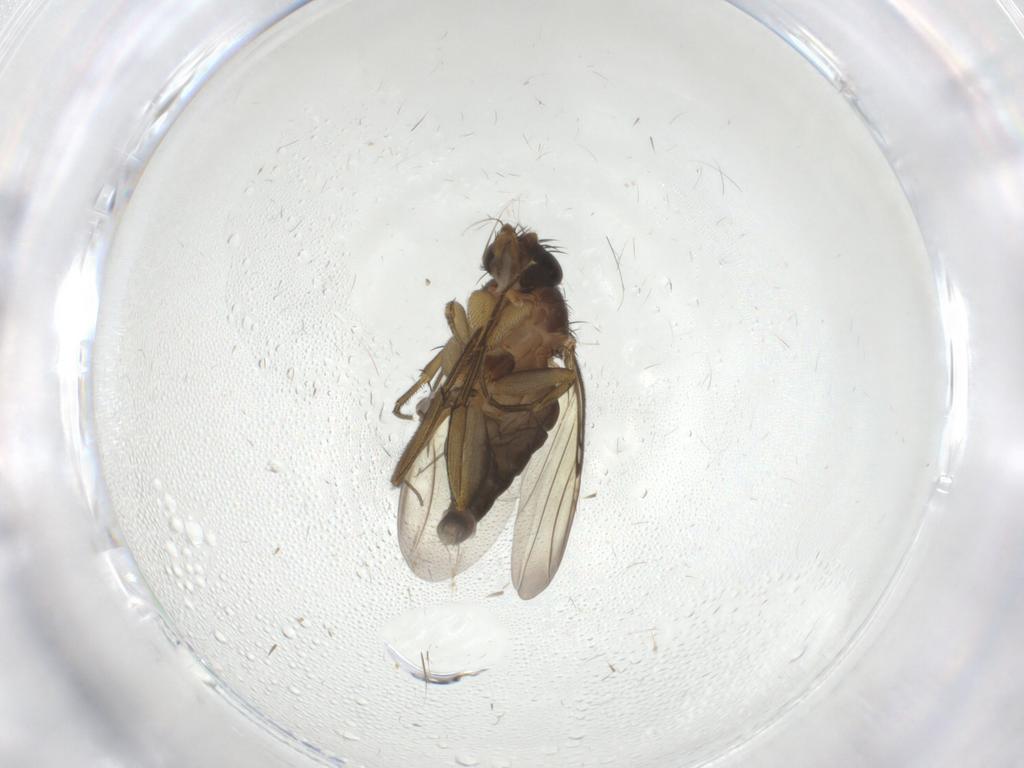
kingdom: Animalia
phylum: Arthropoda
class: Insecta
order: Diptera
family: Phoridae
